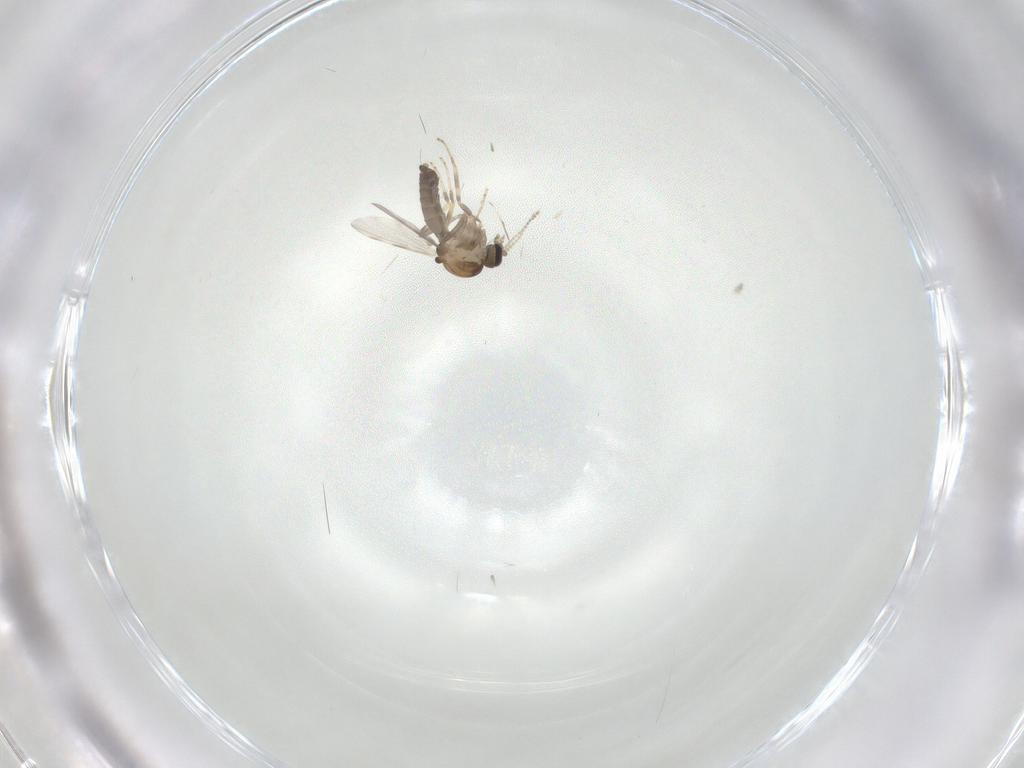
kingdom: Animalia
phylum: Arthropoda
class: Insecta
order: Diptera
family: Ceratopogonidae
